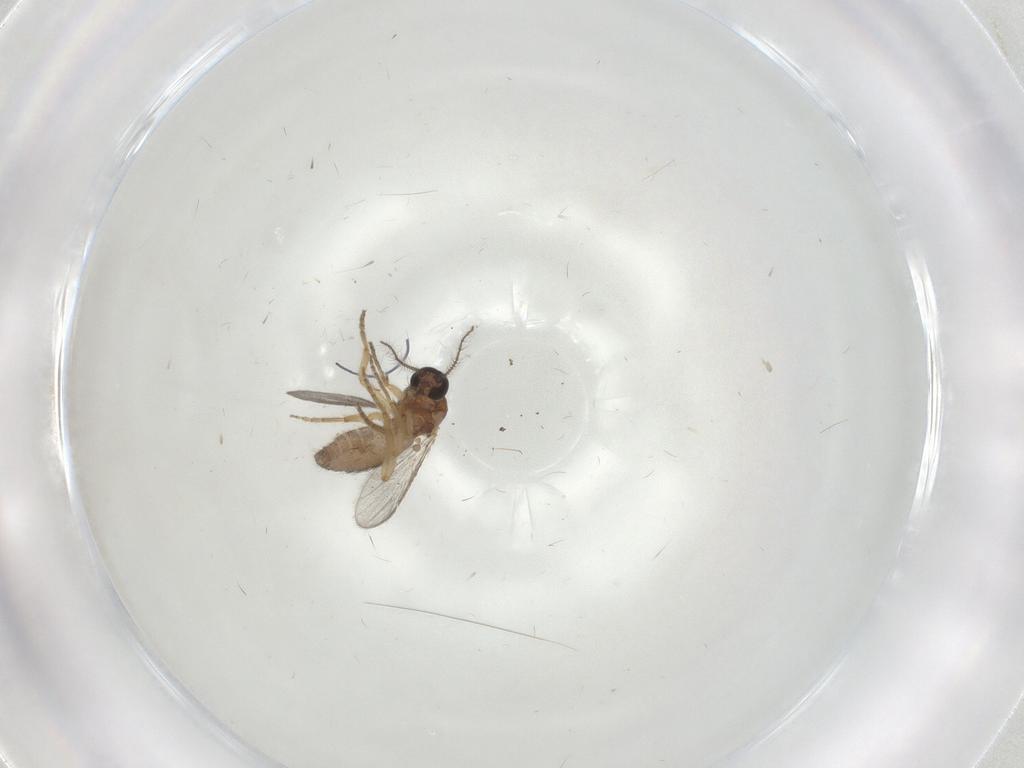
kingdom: Animalia
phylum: Arthropoda
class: Insecta
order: Diptera
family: Ceratopogonidae
